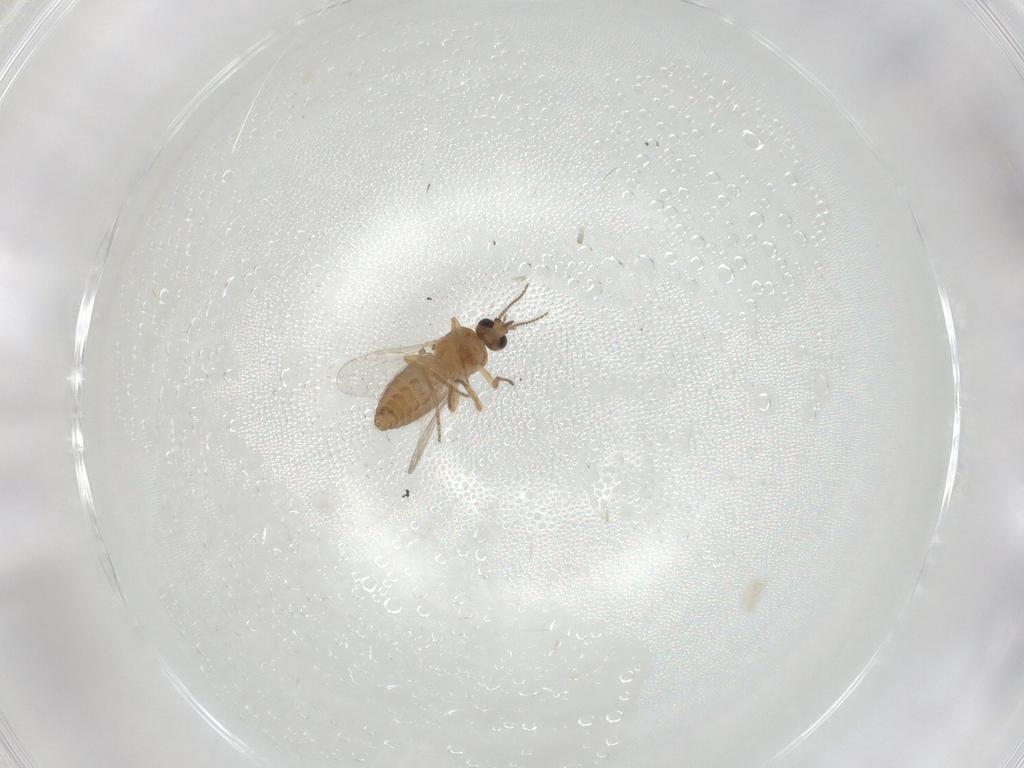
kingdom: Animalia
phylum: Arthropoda
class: Insecta
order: Diptera
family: Ceratopogonidae
